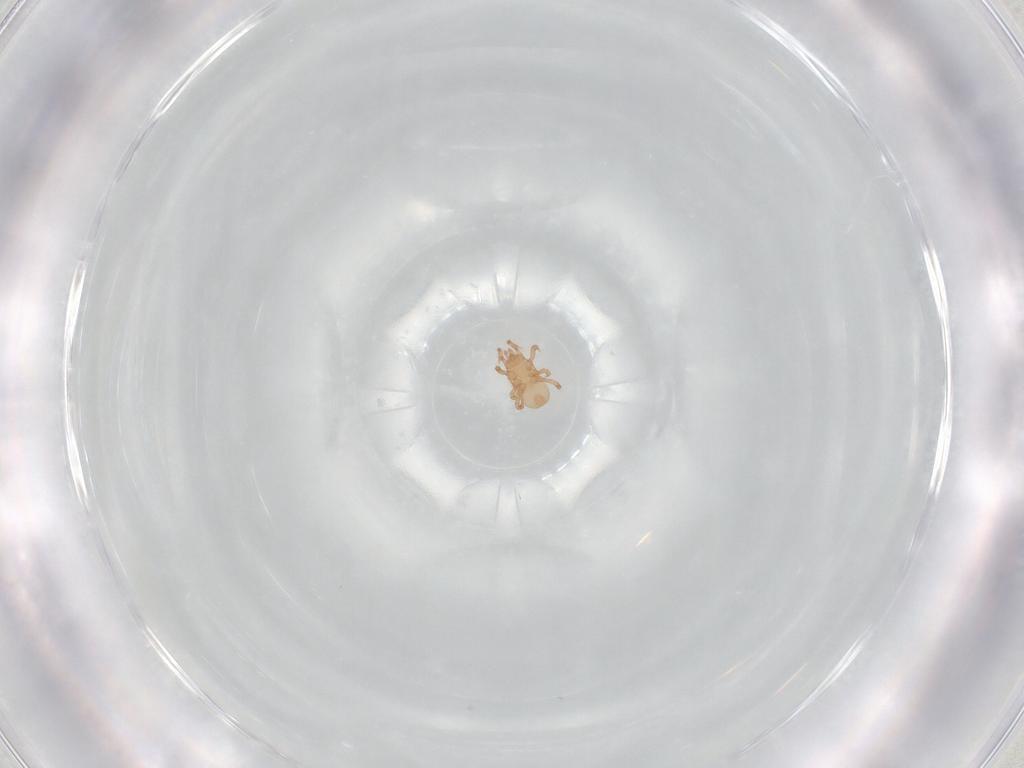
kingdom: Animalia
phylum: Arthropoda
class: Arachnida
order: Mesostigmata
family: Ascidae
